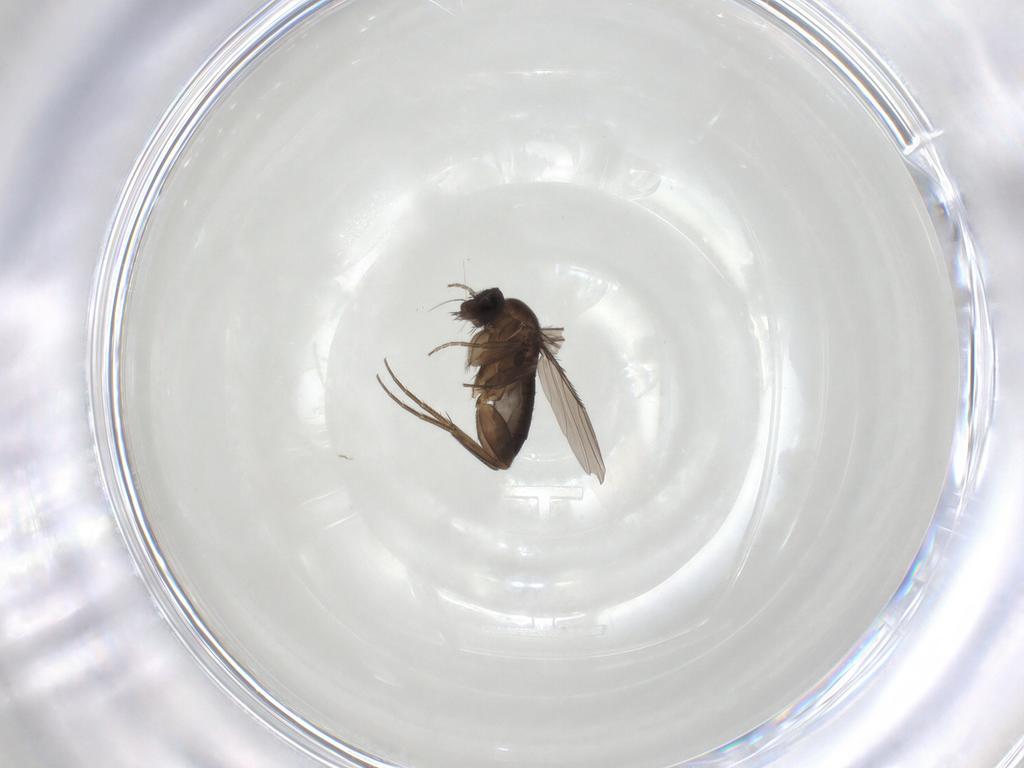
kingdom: Animalia
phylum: Arthropoda
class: Insecta
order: Diptera
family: Phoridae
